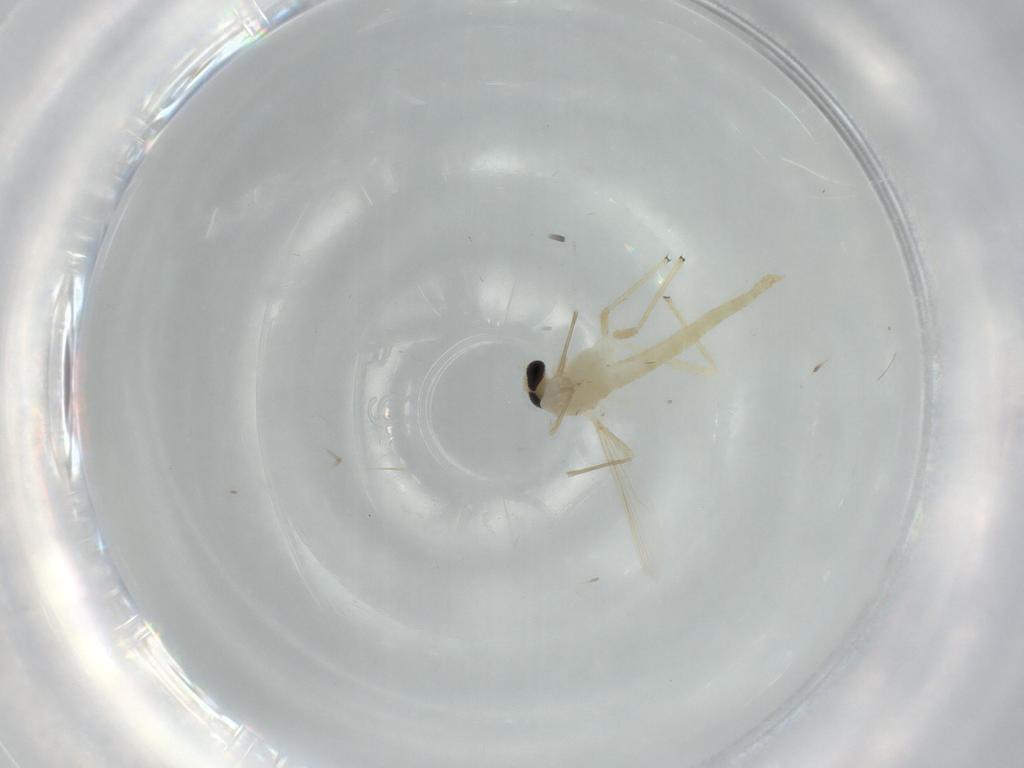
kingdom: Animalia
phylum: Arthropoda
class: Insecta
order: Diptera
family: Chironomidae
